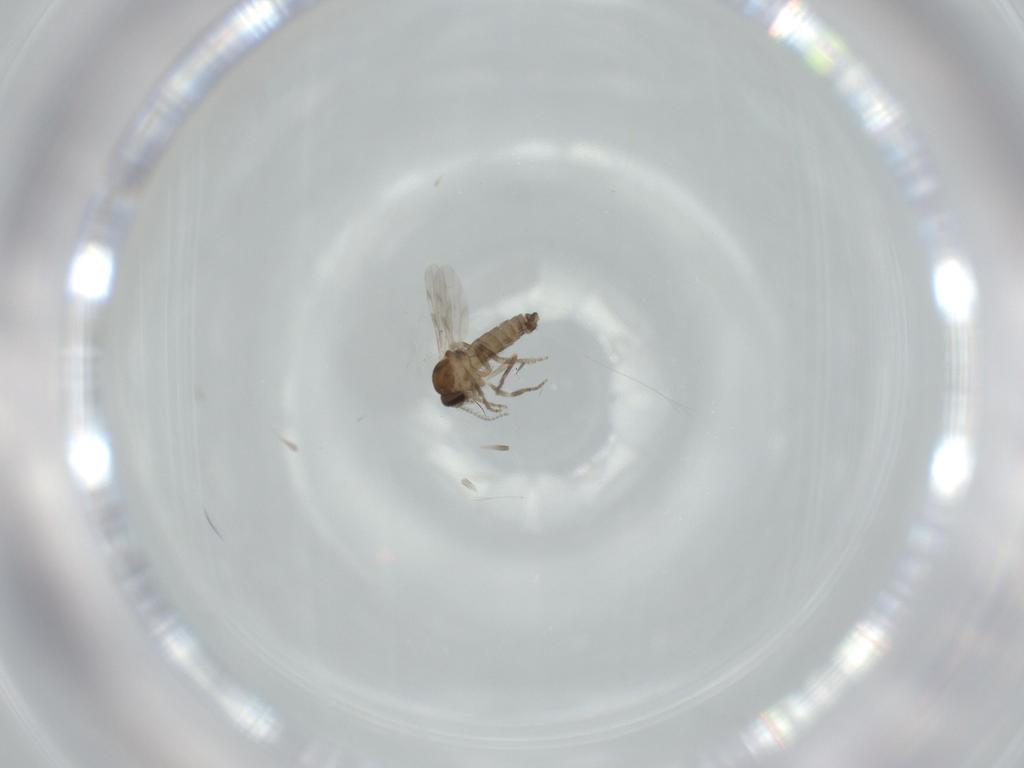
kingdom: Animalia
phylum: Arthropoda
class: Insecta
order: Diptera
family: Ceratopogonidae
